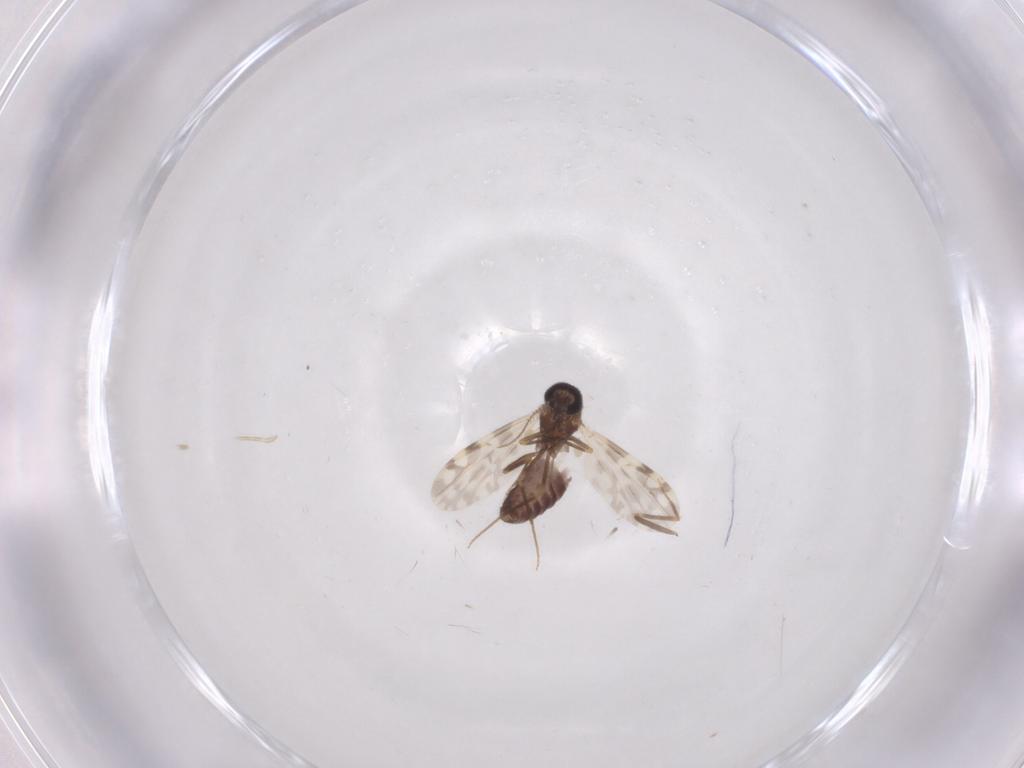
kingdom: Animalia
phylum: Arthropoda
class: Insecta
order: Diptera
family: Ceratopogonidae
